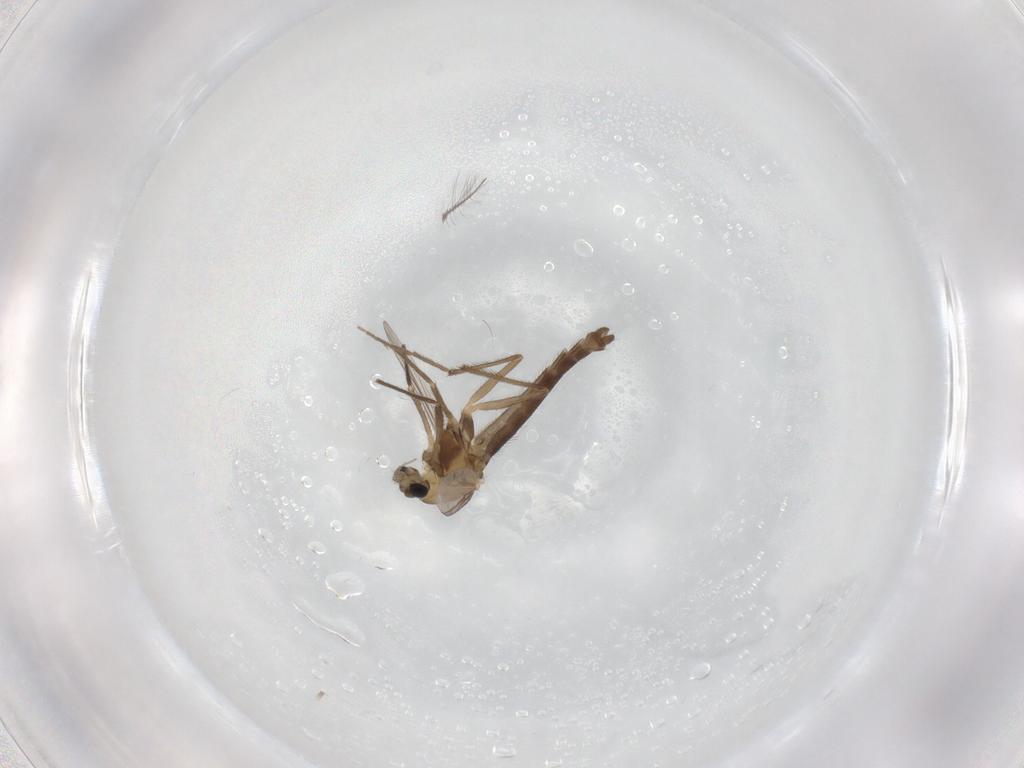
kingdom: Animalia
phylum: Arthropoda
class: Insecta
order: Diptera
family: Chironomidae
